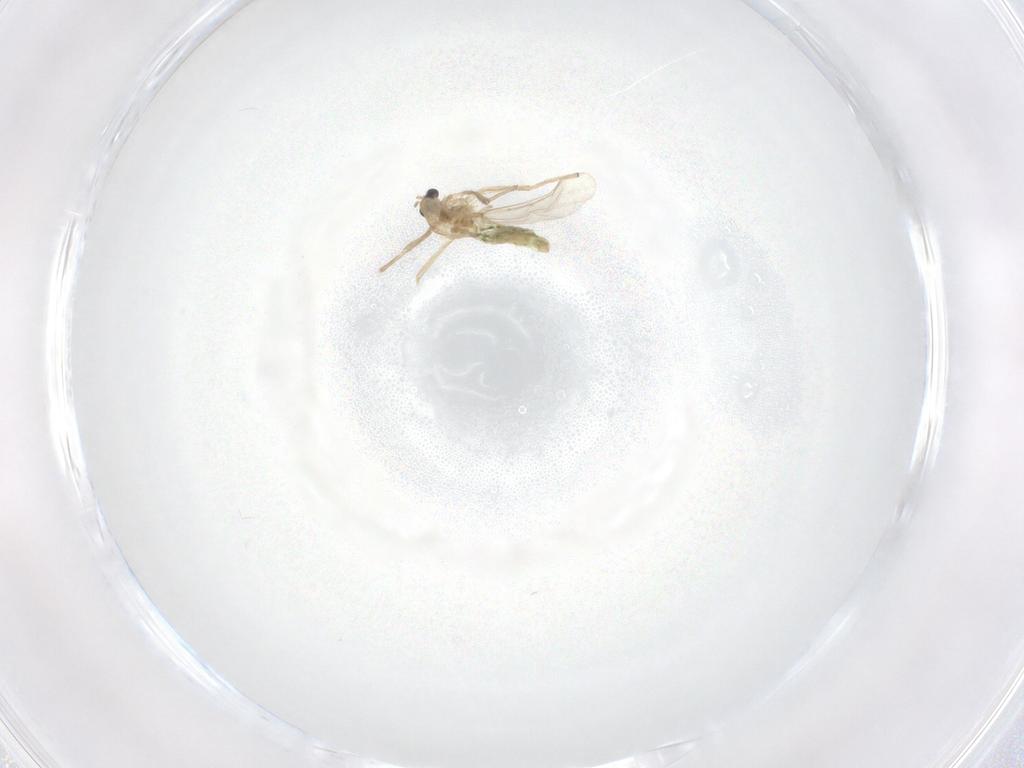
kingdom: Animalia
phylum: Arthropoda
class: Insecta
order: Diptera
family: Chironomidae
